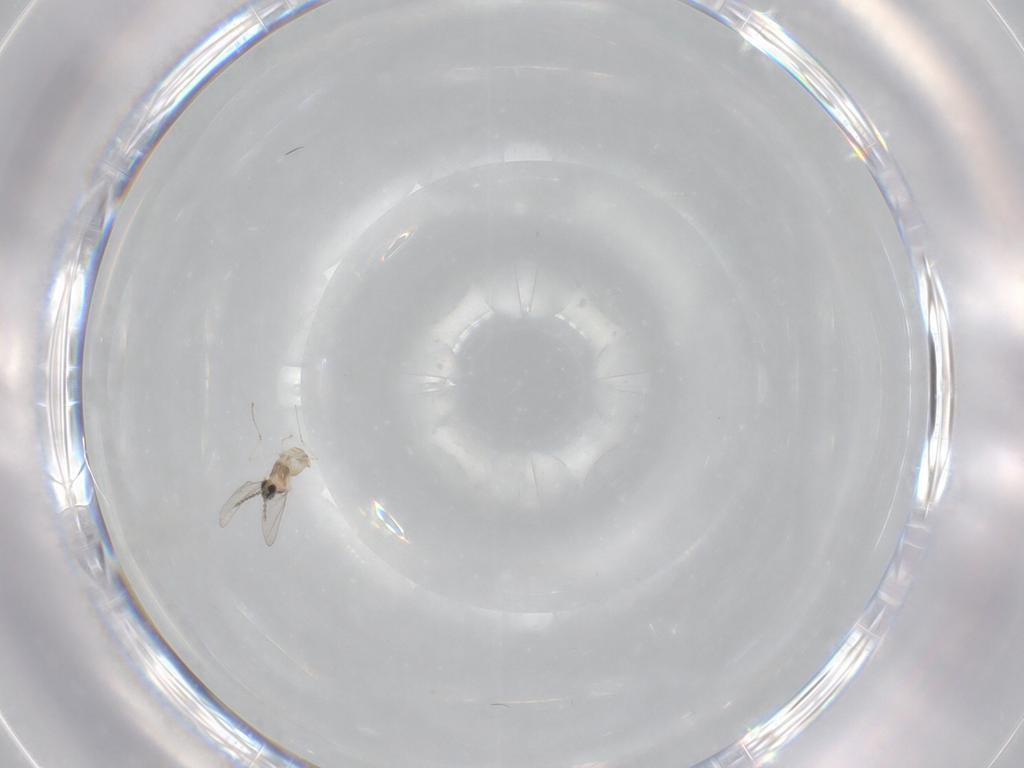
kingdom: Animalia
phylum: Arthropoda
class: Insecta
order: Diptera
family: Cecidomyiidae
